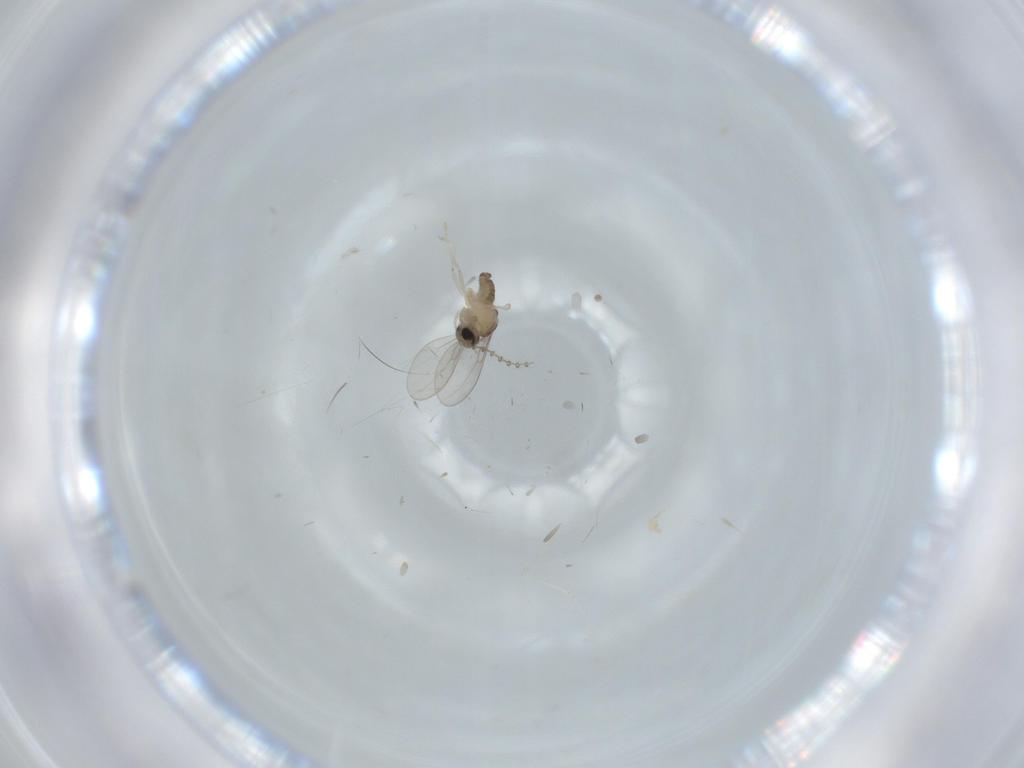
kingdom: Animalia
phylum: Arthropoda
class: Insecta
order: Diptera
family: Cecidomyiidae
